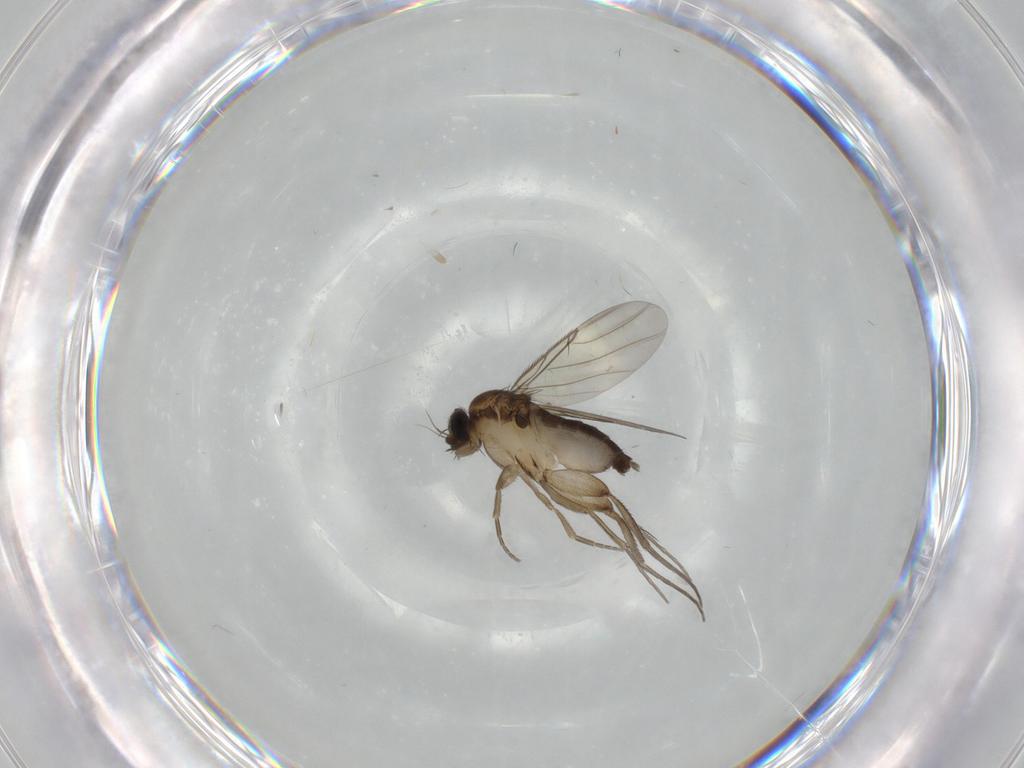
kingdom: Animalia
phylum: Arthropoda
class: Insecta
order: Diptera
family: Phoridae
